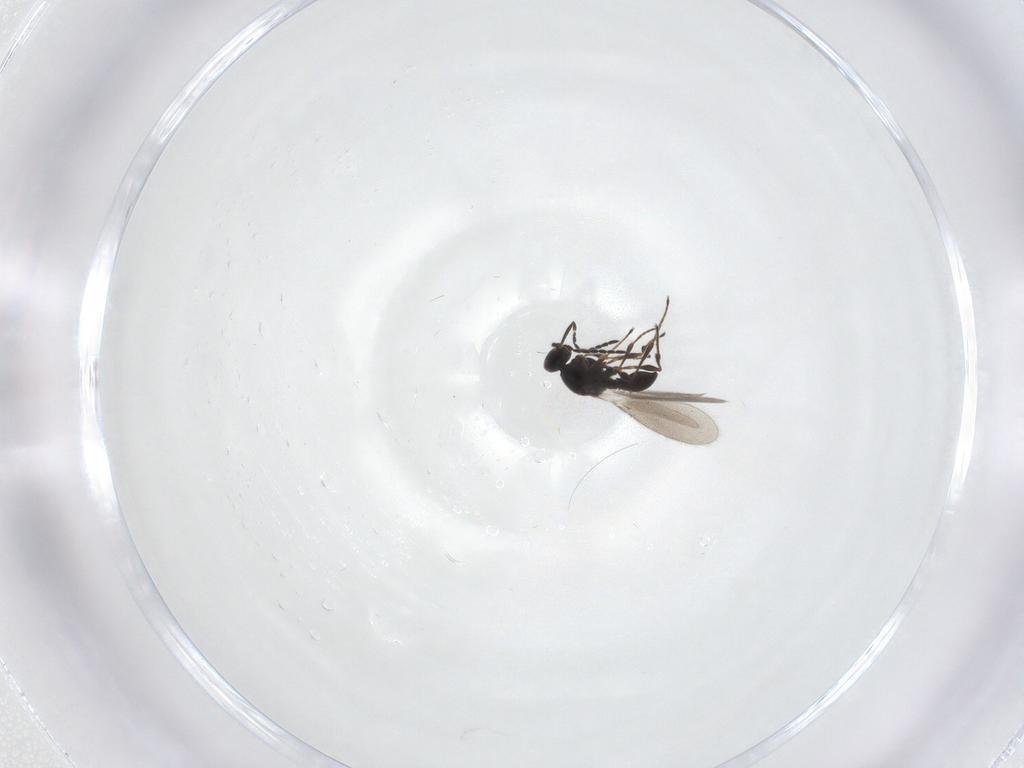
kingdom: Animalia
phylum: Arthropoda
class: Insecta
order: Hymenoptera
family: Platygastridae
